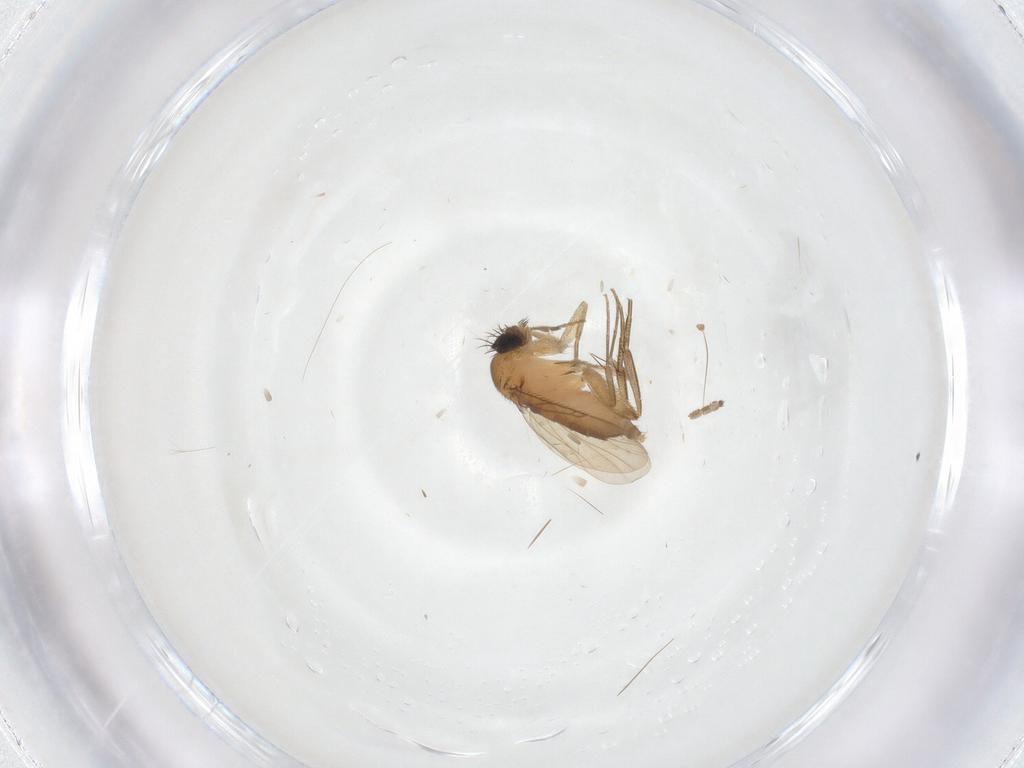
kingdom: Animalia
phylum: Arthropoda
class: Insecta
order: Diptera
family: Phoridae
